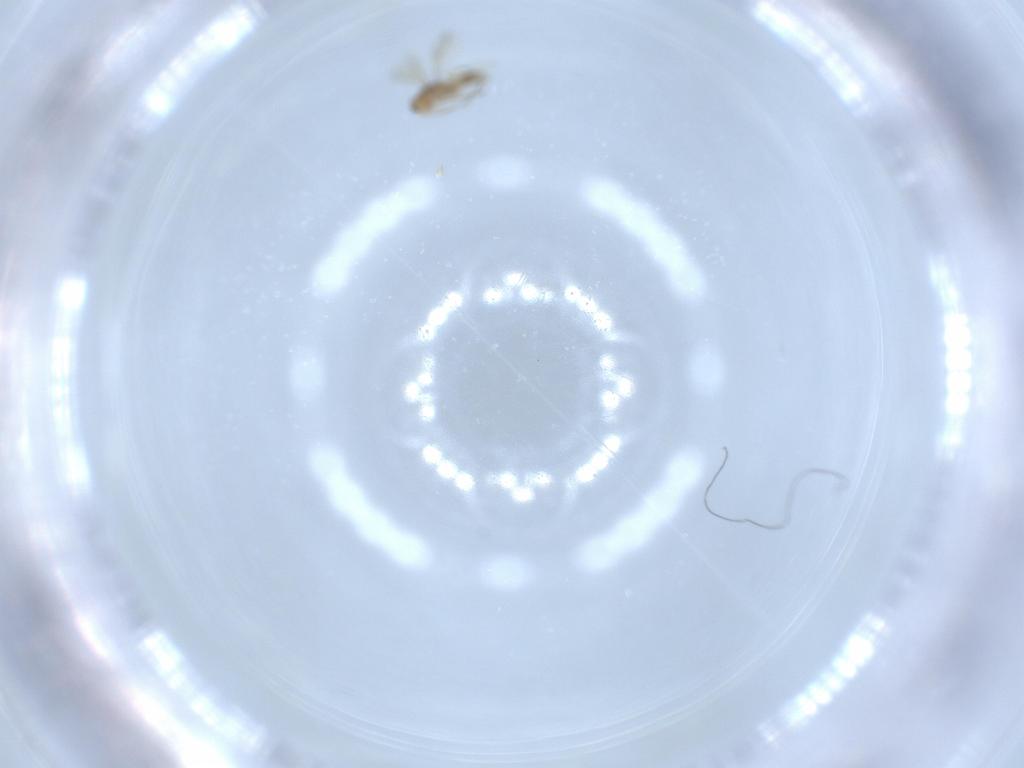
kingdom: Animalia
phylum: Arthropoda
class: Insecta
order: Hymenoptera
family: Scelionidae
